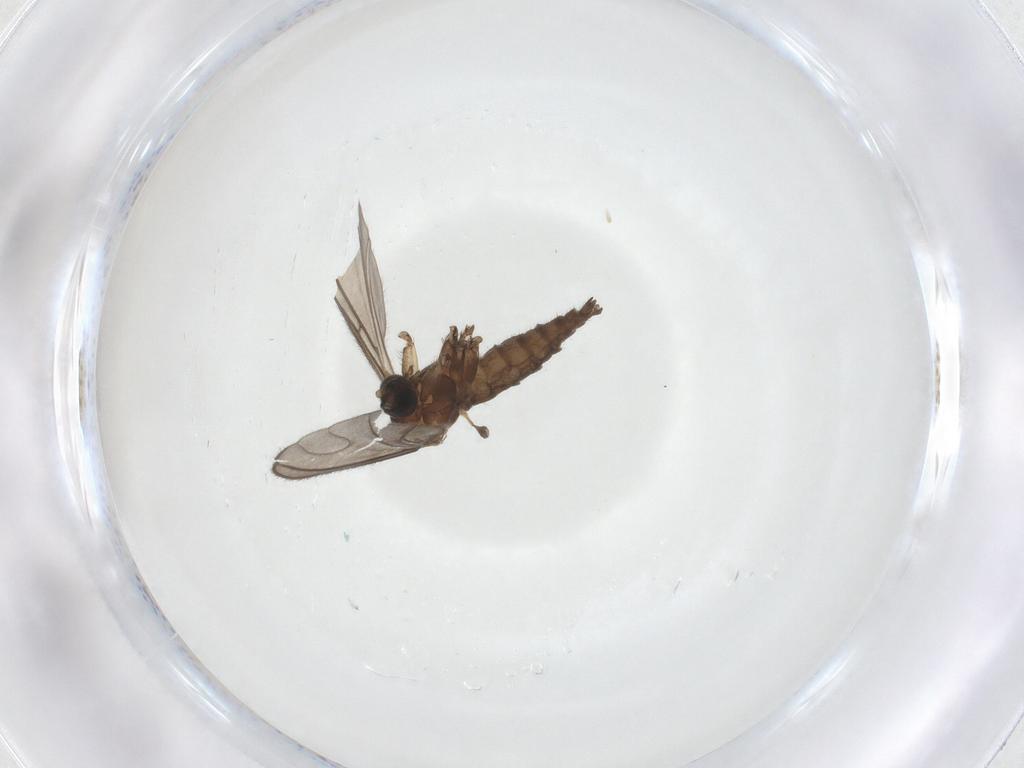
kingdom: Animalia
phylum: Arthropoda
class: Insecta
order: Diptera
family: Sciaridae
